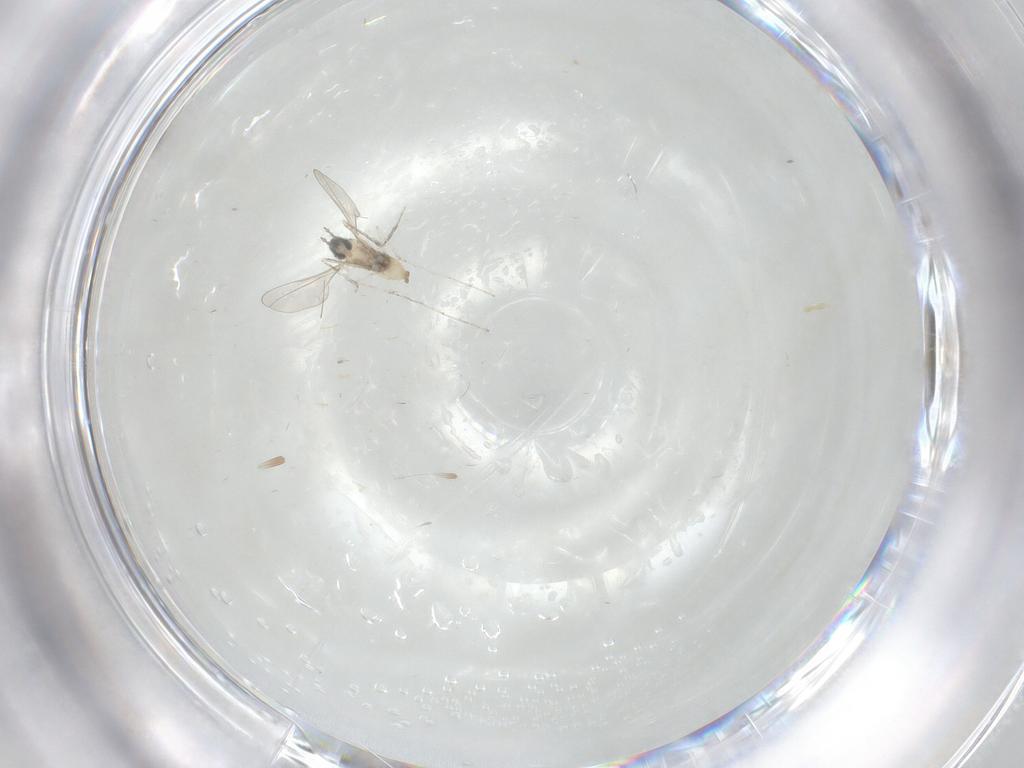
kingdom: Animalia
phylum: Arthropoda
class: Insecta
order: Diptera
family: Cecidomyiidae
